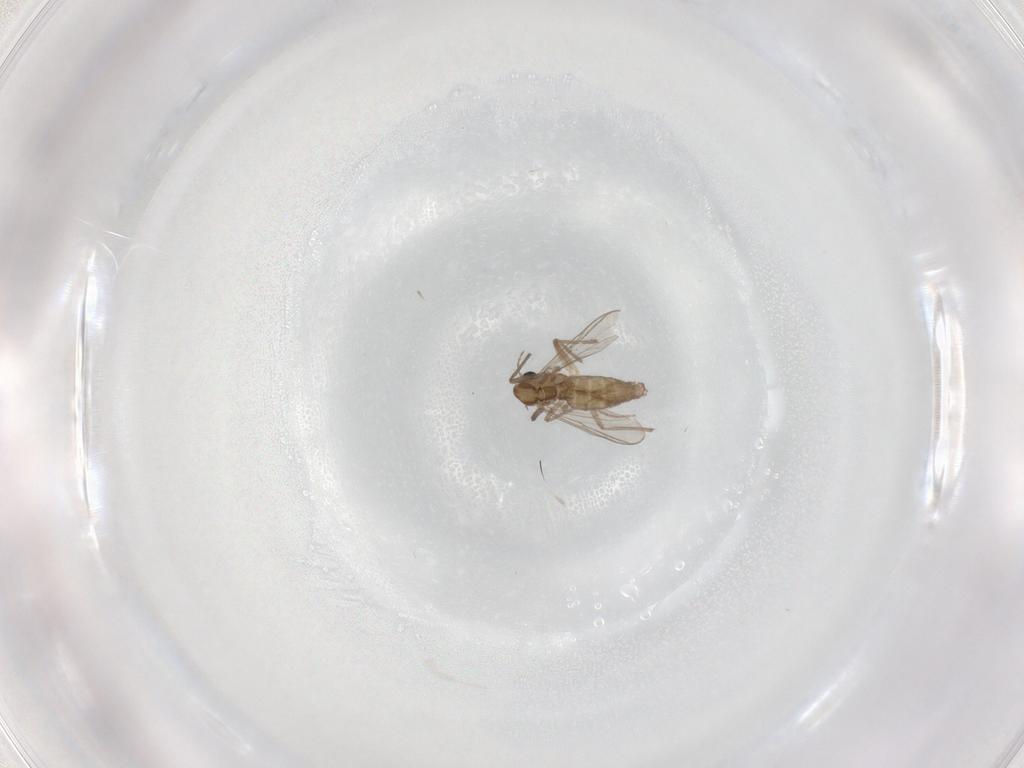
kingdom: Animalia
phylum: Arthropoda
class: Insecta
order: Diptera
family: Chironomidae
